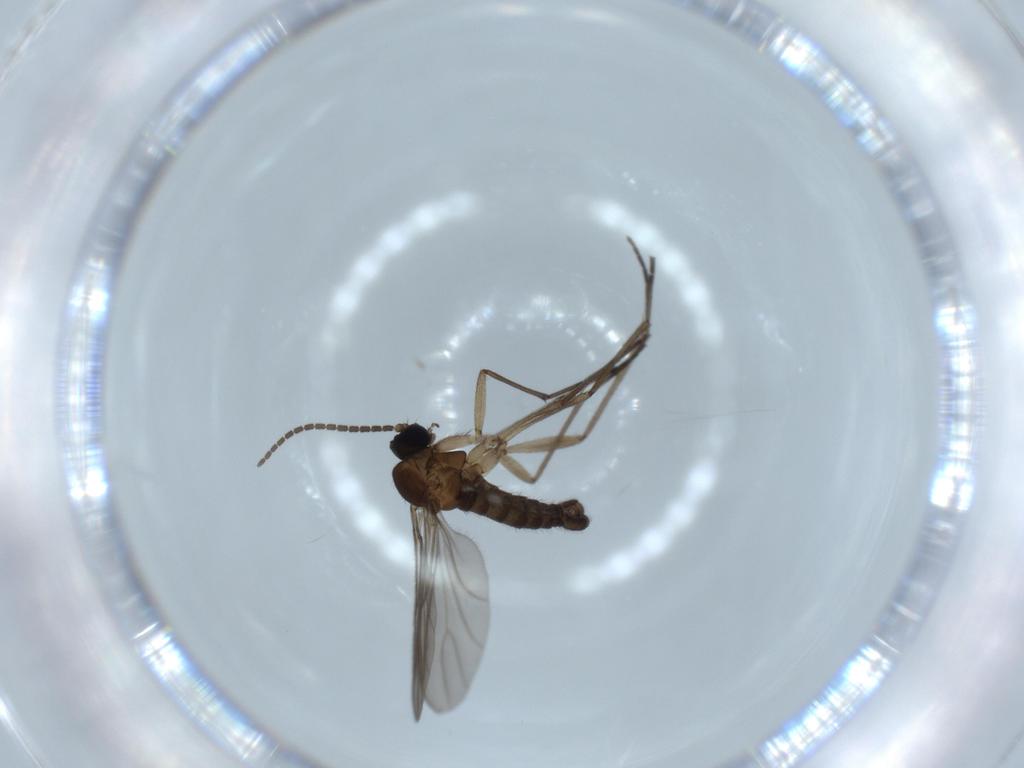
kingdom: Animalia
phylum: Arthropoda
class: Insecta
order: Diptera
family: Sciaridae
